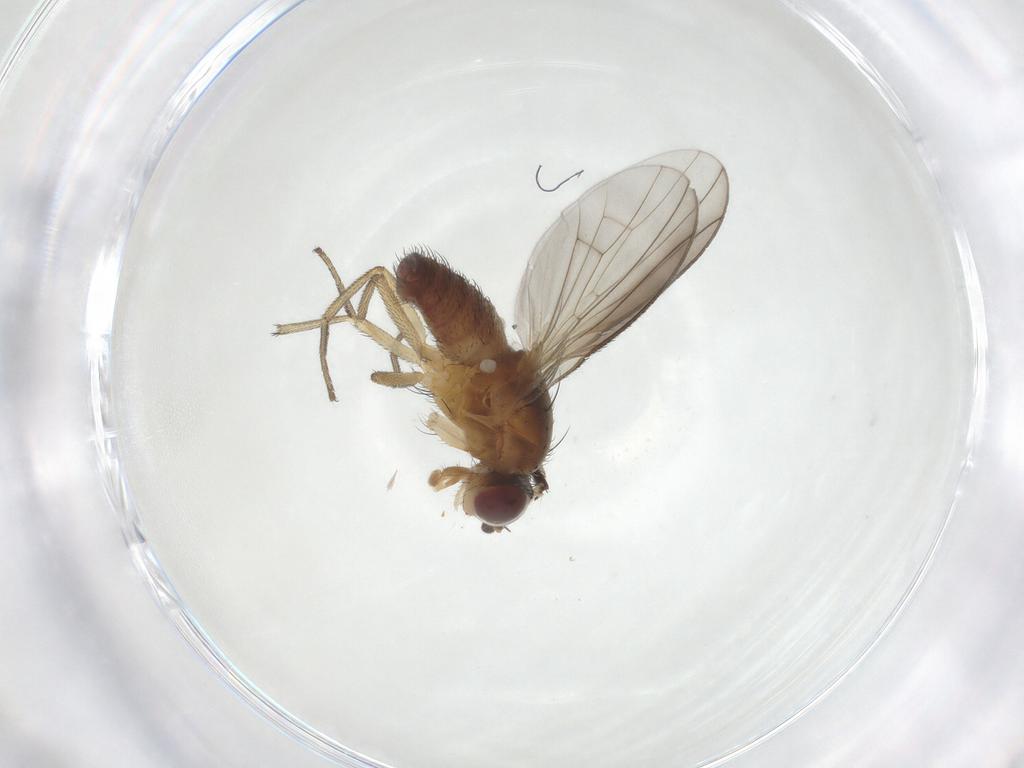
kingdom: Animalia
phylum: Arthropoda
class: Insecta
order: Diptera
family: Heleomyzidae
